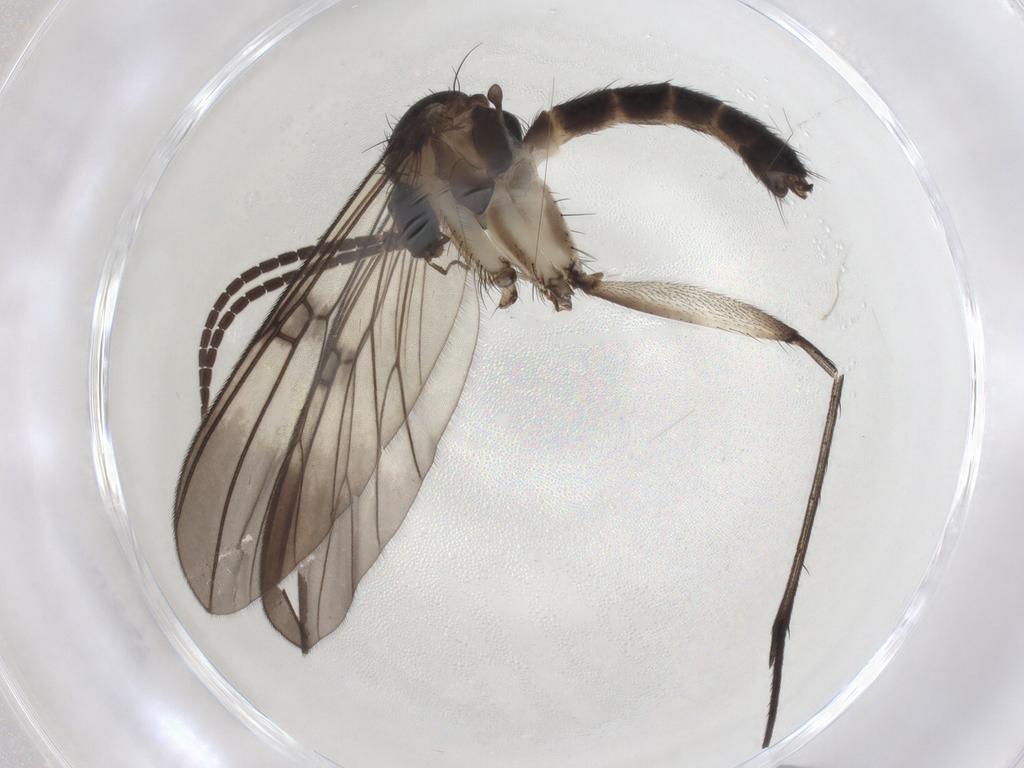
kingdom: Animalia
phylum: Arthropoda
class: Insecta
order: Diptera
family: Mycetophilidae
